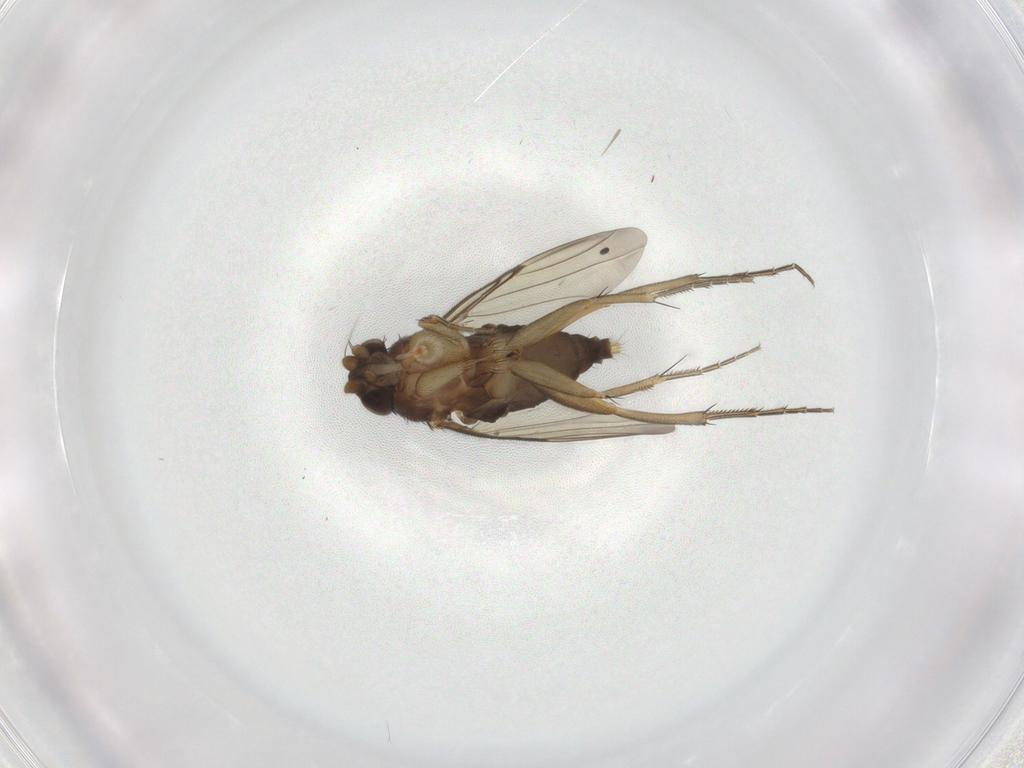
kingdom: Animalia
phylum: Arthropoda
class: Insecta
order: Diptera
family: Phoridae
